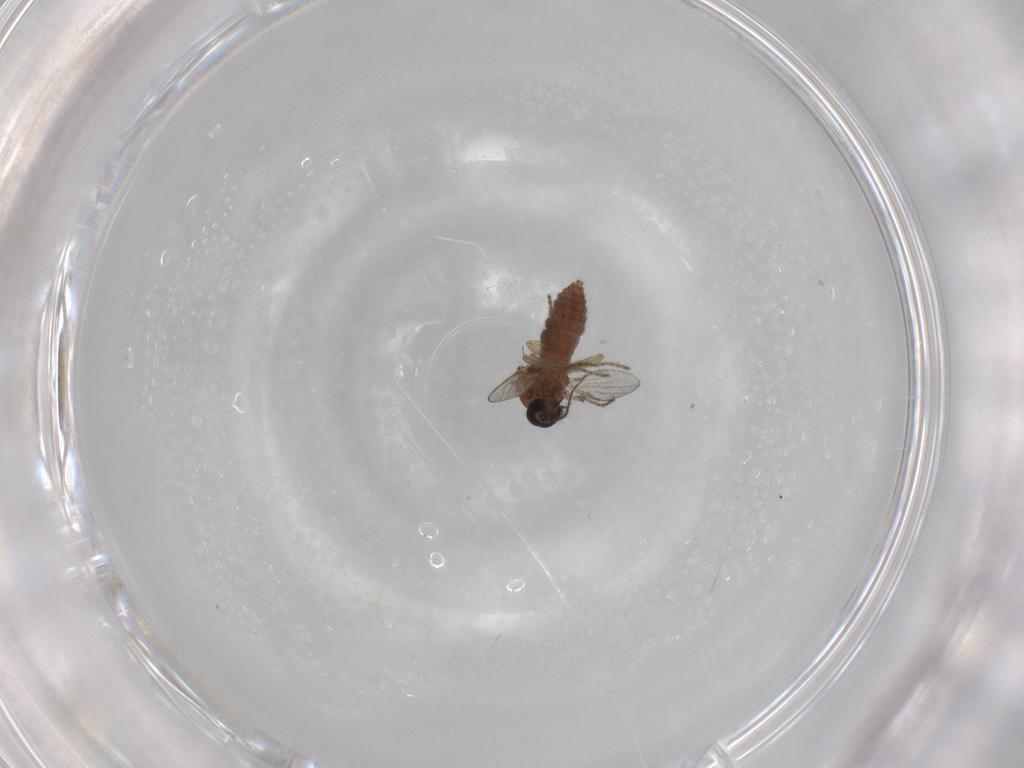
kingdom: Animalia
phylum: Arthropoda
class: Insecta
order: Diptera
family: Ceratopogonidae
